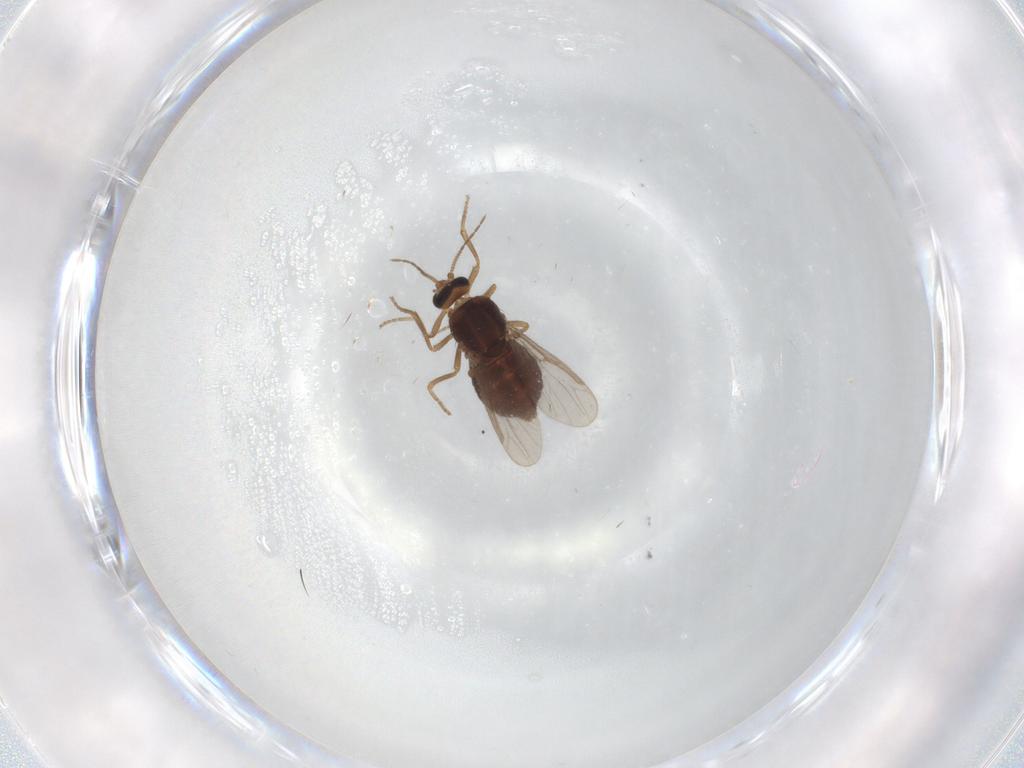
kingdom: Animalia
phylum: Arthropoda
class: Insecta
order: Diptera
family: Ceratopogonidae
